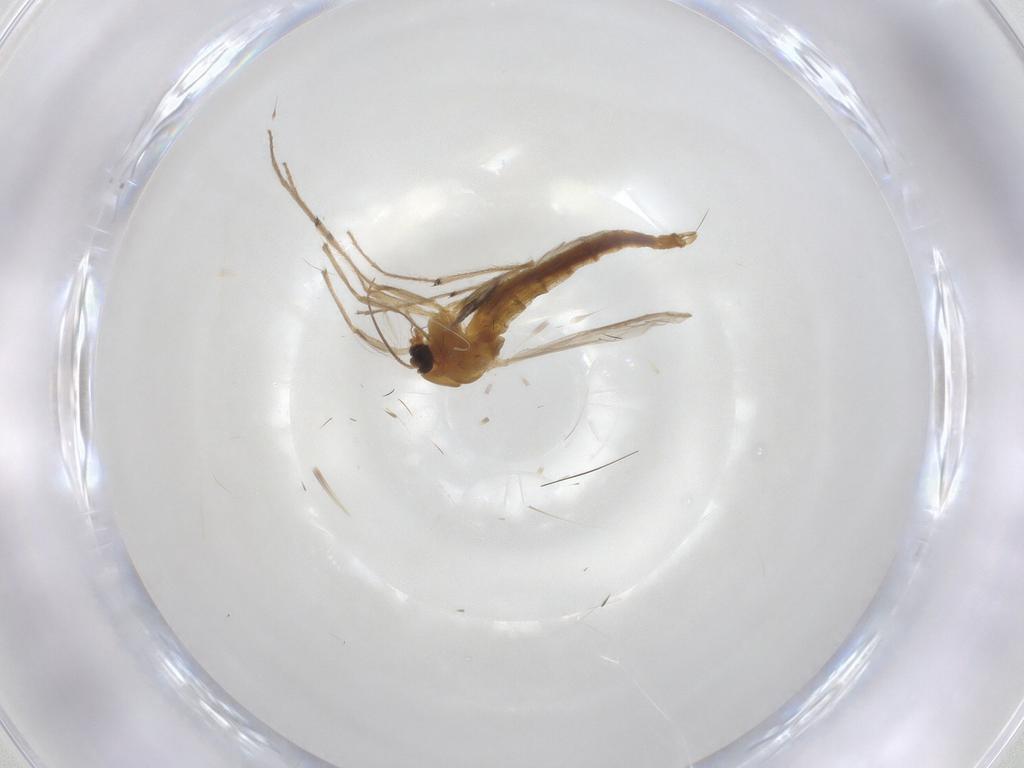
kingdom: Animalia
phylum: Arthropoda
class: Insecta
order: Diptera
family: Chironomidae
